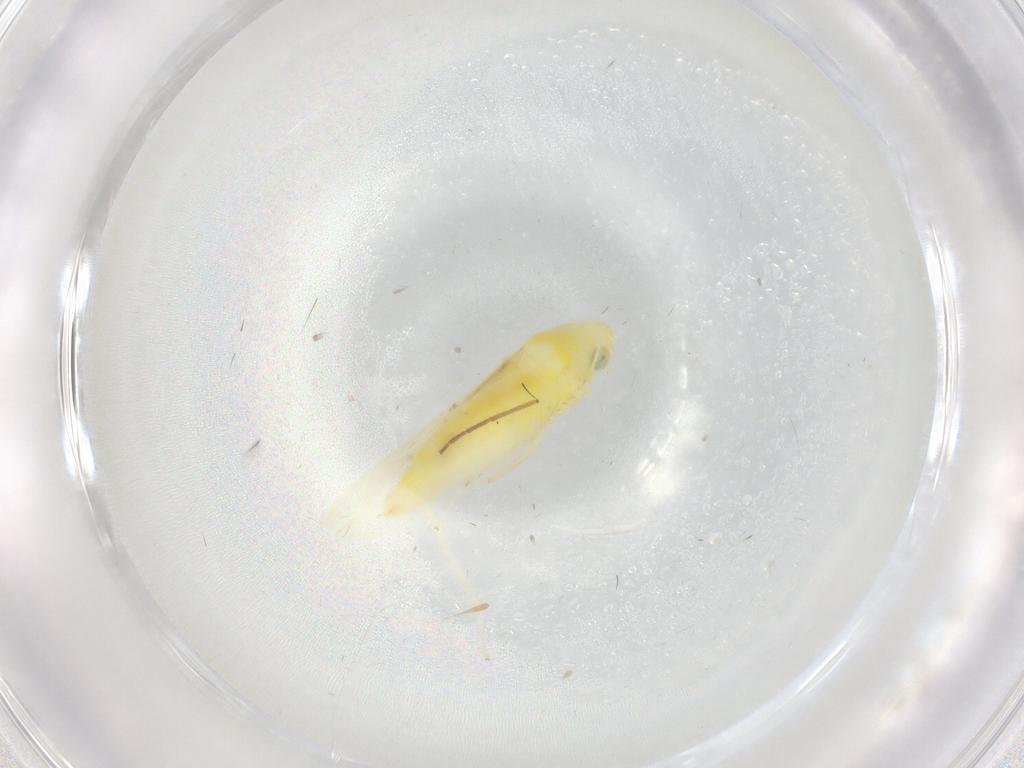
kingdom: Animalia
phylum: Arthropoda
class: Insecta
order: Hemiptera
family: Cicadellidae
